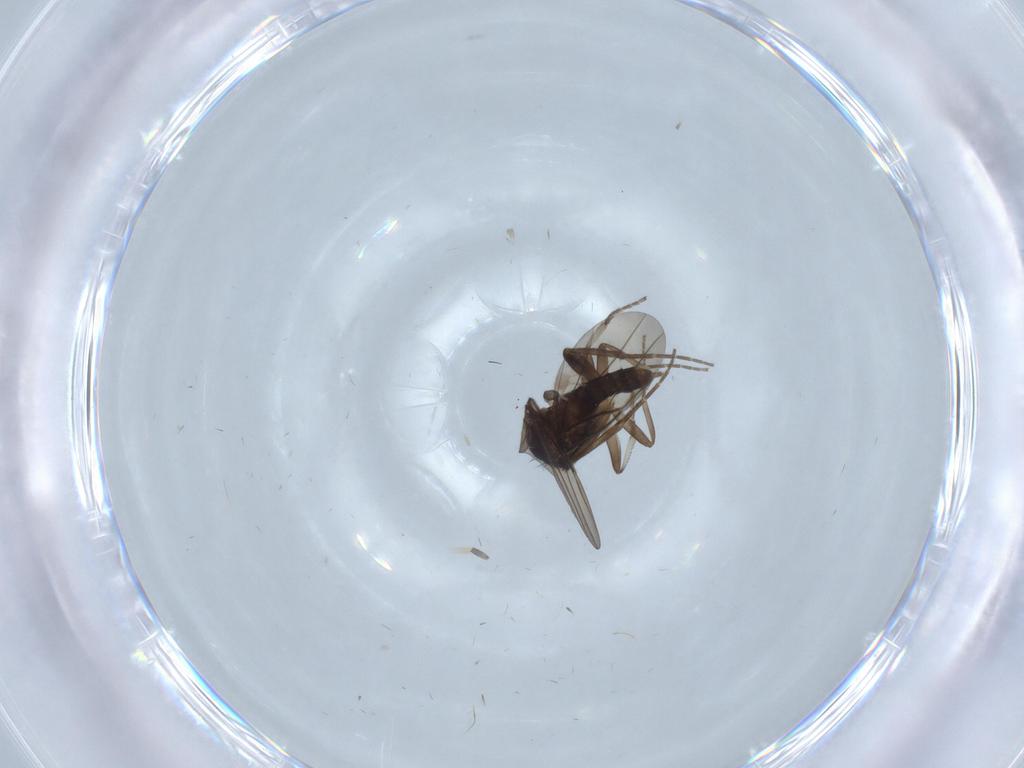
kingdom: Animalia
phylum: Arthropoda
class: Insecta
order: Diptera
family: Phoridae
